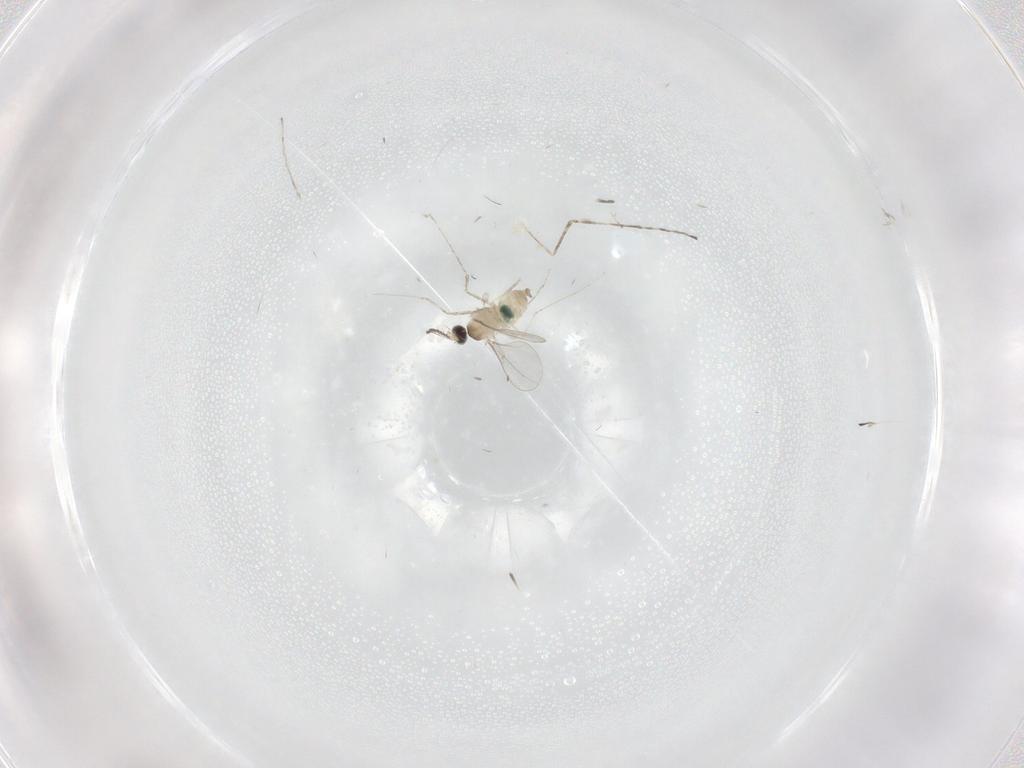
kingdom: Animalia
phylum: Arthropoda
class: Insecta
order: Diptera
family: Cecidomyiidae
